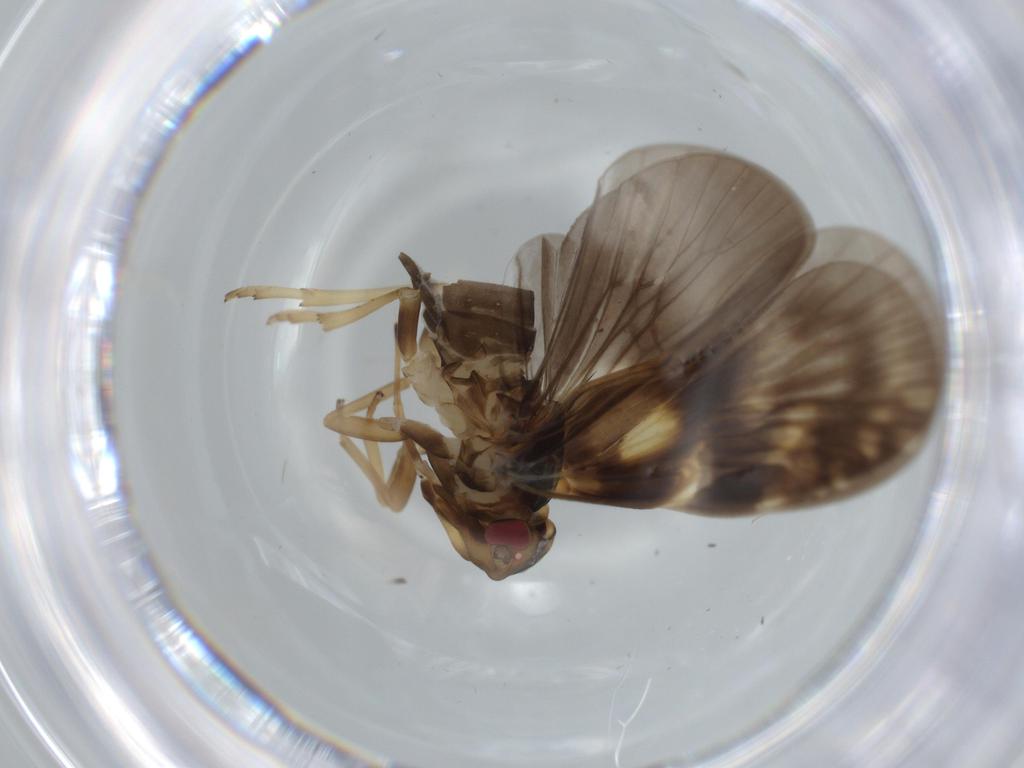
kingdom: Animalia
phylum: Arthropoda
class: Insecta
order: Hemiptera
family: Cixiidae
